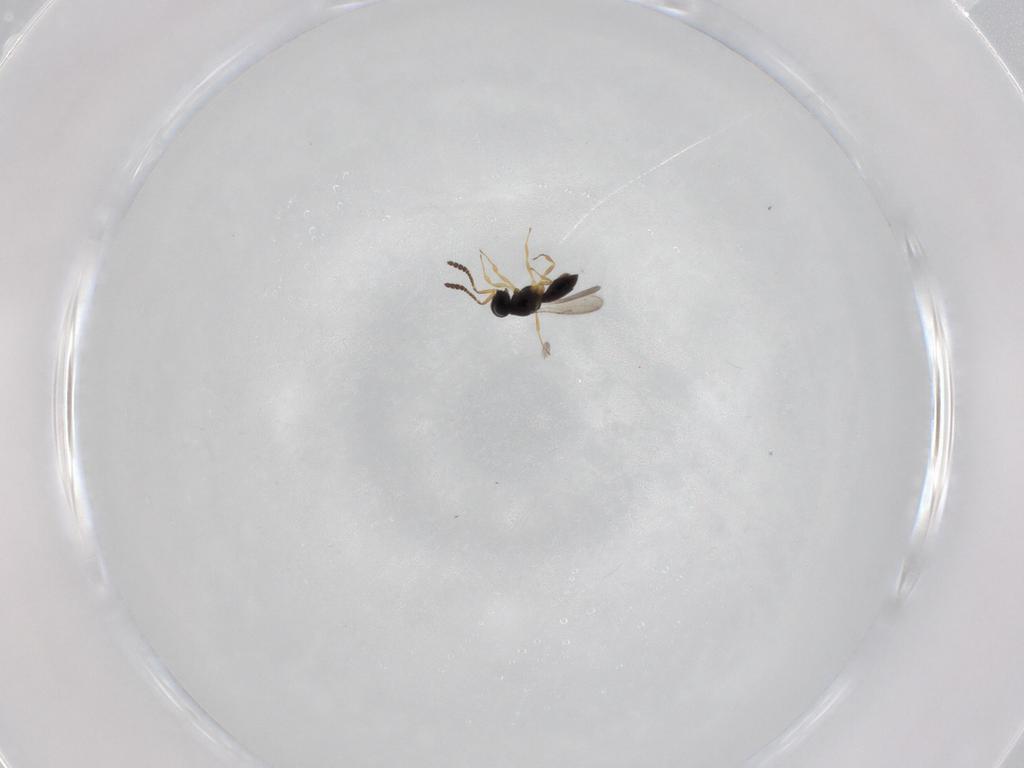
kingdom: Animalia
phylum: Arthropoda
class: Insecta
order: Hymenoptera
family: Scelionidae
